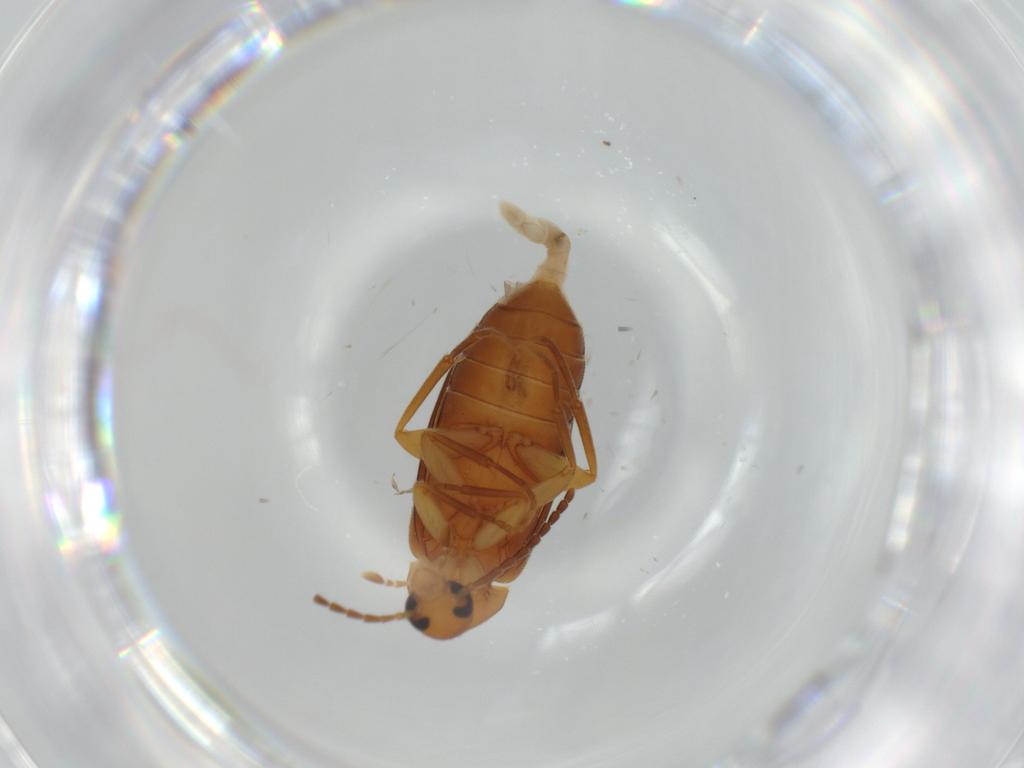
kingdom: Animalia
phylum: Arthropoda
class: Insecta
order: Coleoptera
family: Scraptiidae
